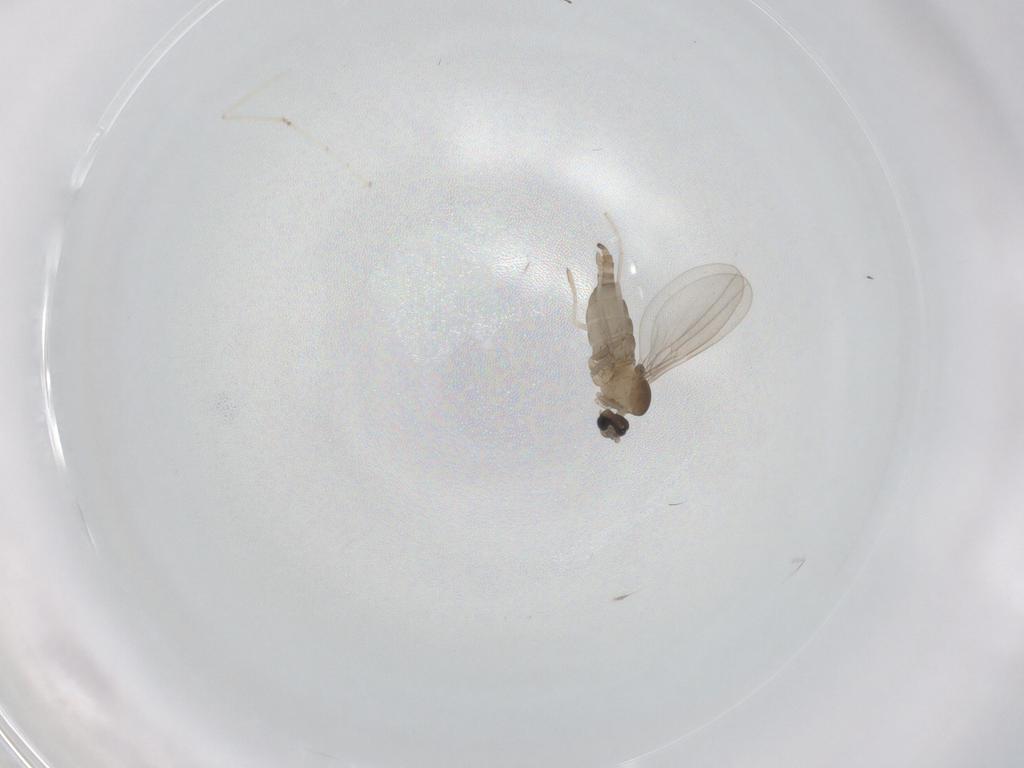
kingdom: Animalia
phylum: Arthropoda
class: Insecta
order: Diptera
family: Cecidomyiidae
